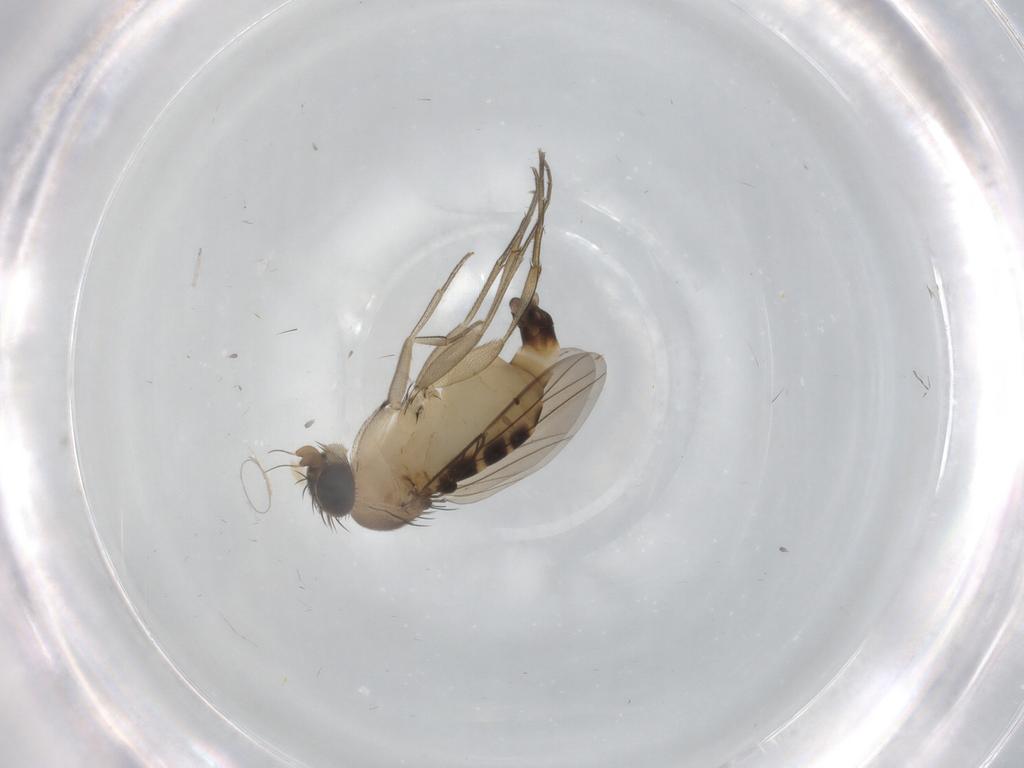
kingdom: Animalia
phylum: Arthropoda
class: Insecta
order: Diptera
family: Phoridae
